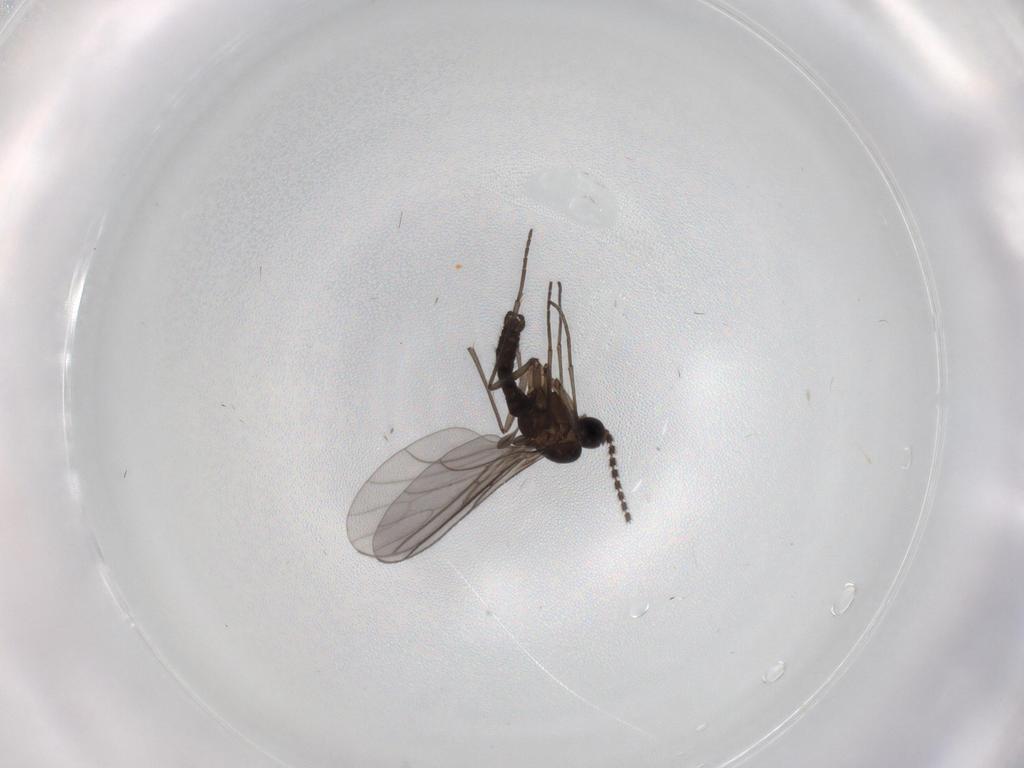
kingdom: Animalia
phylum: Arthropoda
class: Insecta
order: Diptera
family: Sciaridae
